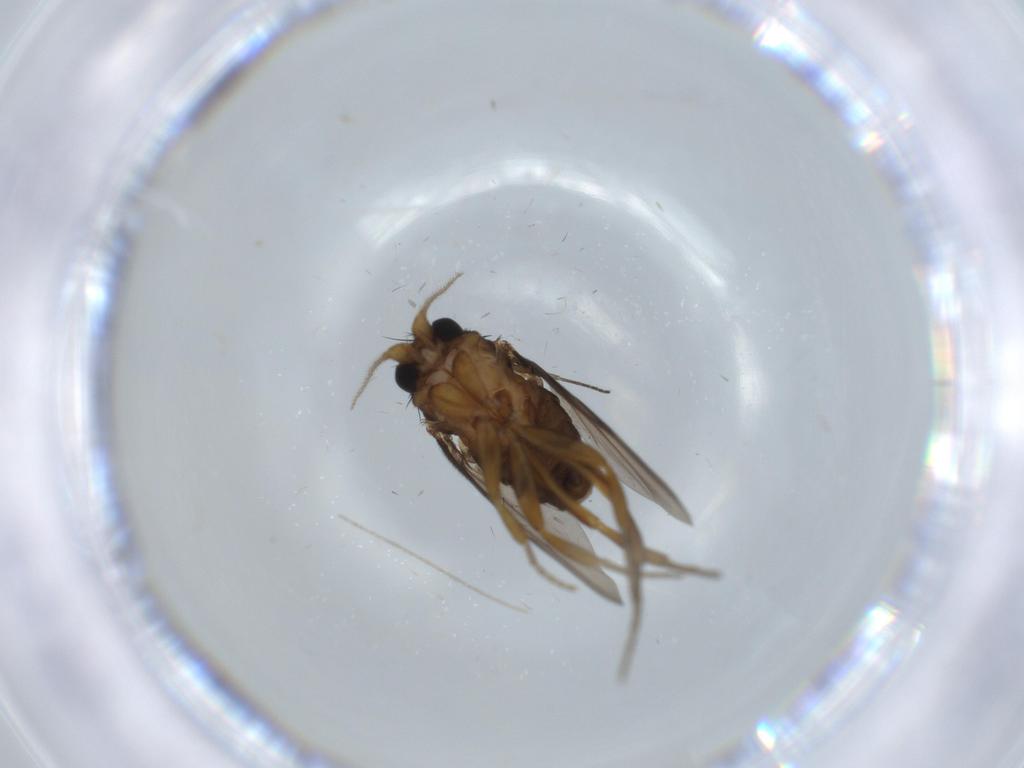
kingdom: Animalia
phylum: Arthropoda
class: Insecta
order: Diptera
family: Sciaridae
